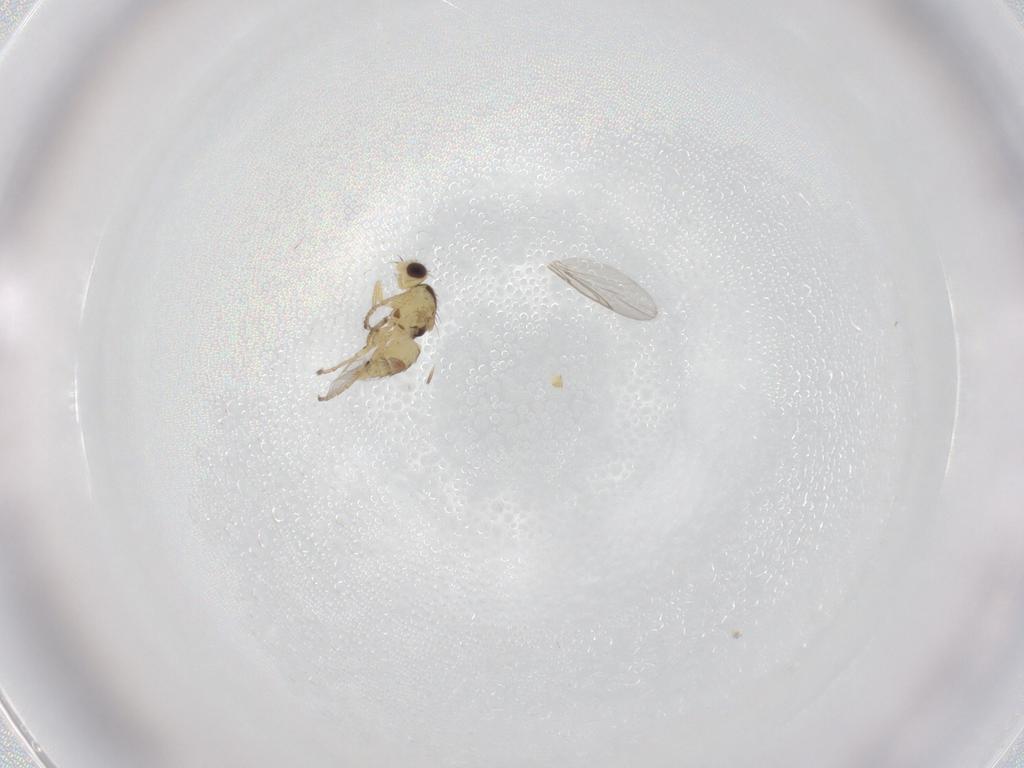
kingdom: Animalia
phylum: Arthropoda
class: Insecta
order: Diptera
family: Agromyzidae
